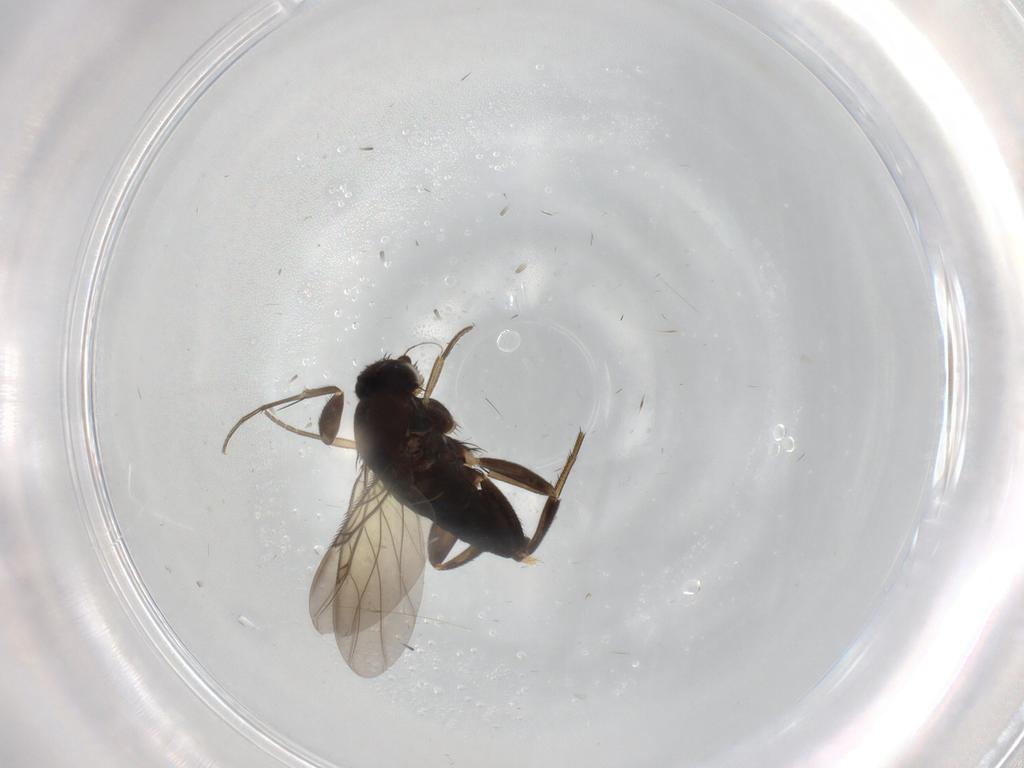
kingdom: Animalia
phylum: Arthropoda
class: Insecta
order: Diptera
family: Phoridae
